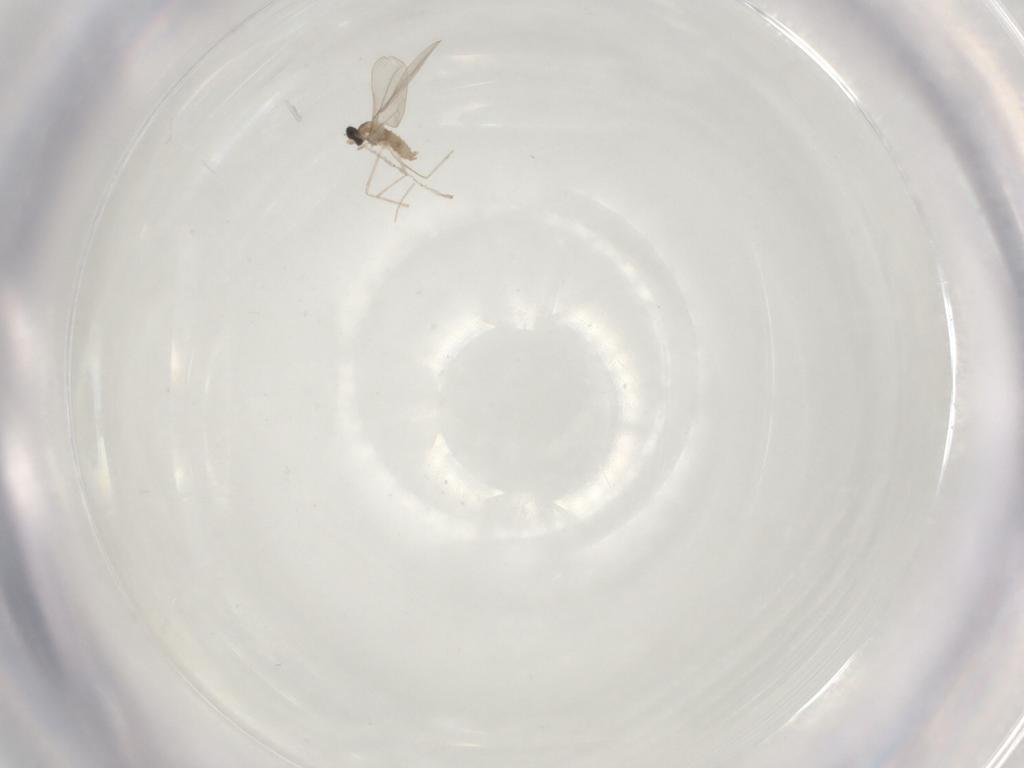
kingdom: Animalia
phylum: Arthropoda
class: Insecta
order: Diptera
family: Cecidomyiidae
